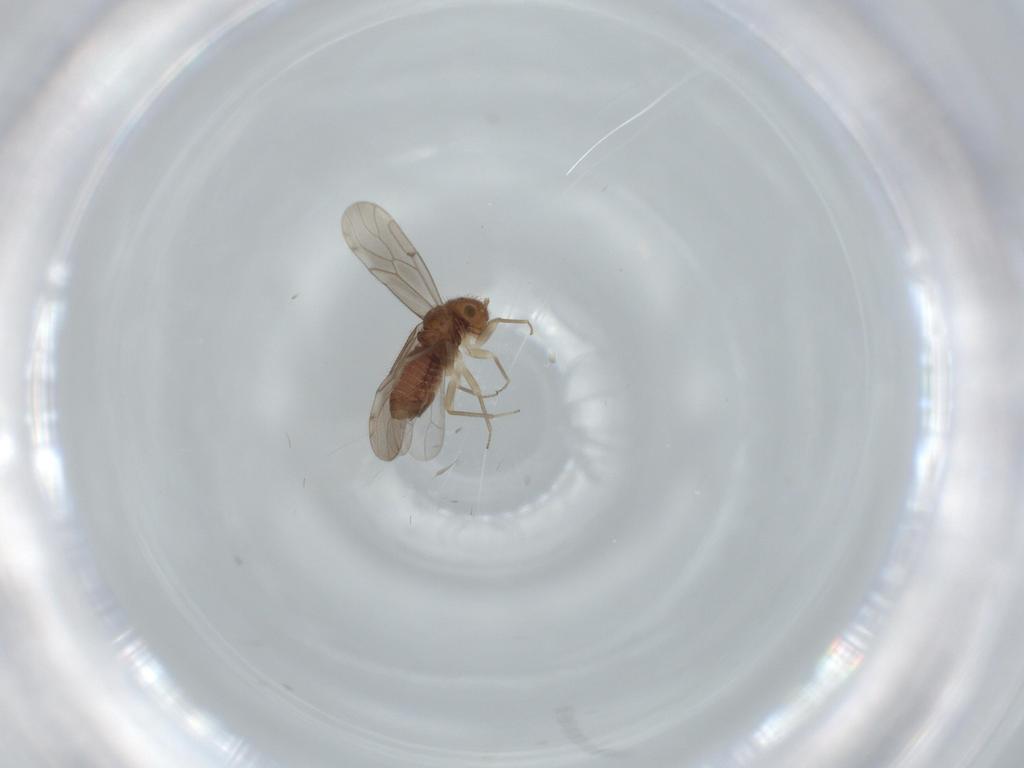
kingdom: Animalia
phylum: Arthropoda
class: Insecta
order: Psocodea
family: Ectopsocidae
